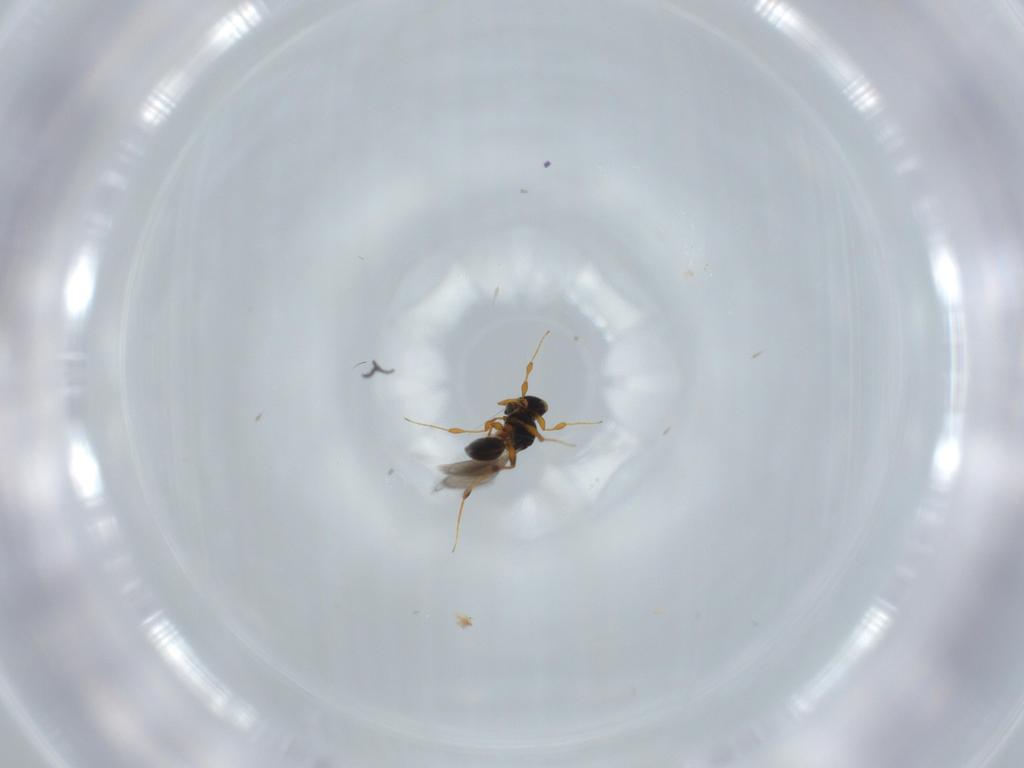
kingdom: Animalia
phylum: Arthropoda
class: Insecta
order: Hymenoptera
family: Platygastridae
